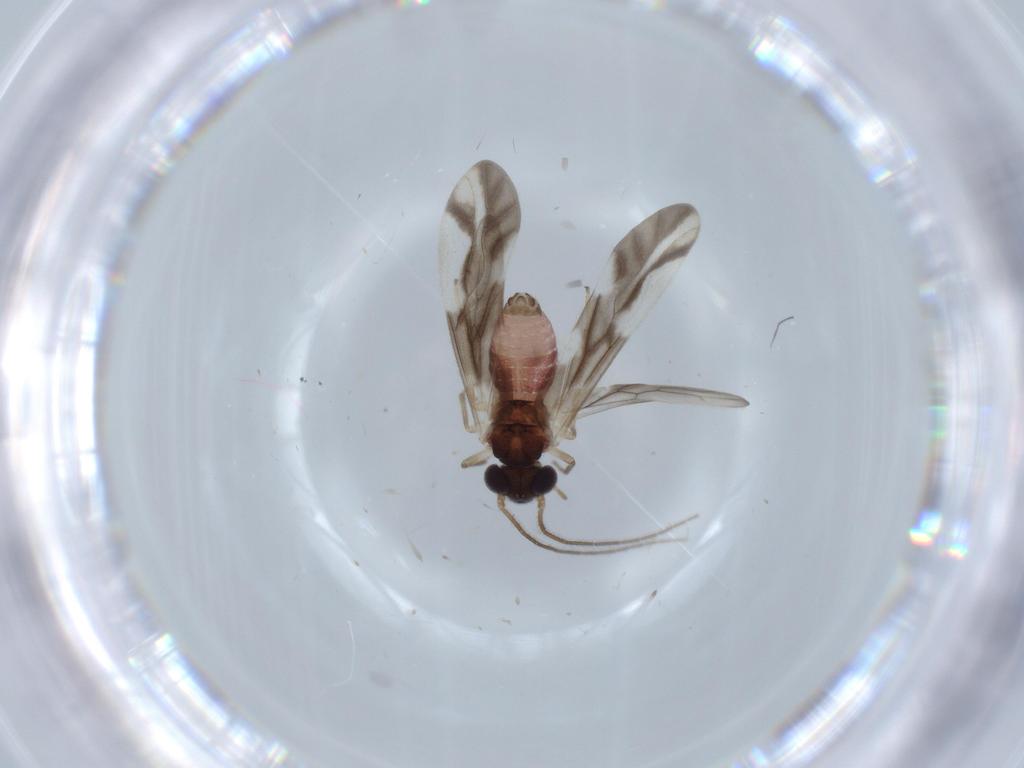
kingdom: Animalia
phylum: Arthropoda
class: Insecta
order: Psocodea
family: Caeciliusidae
